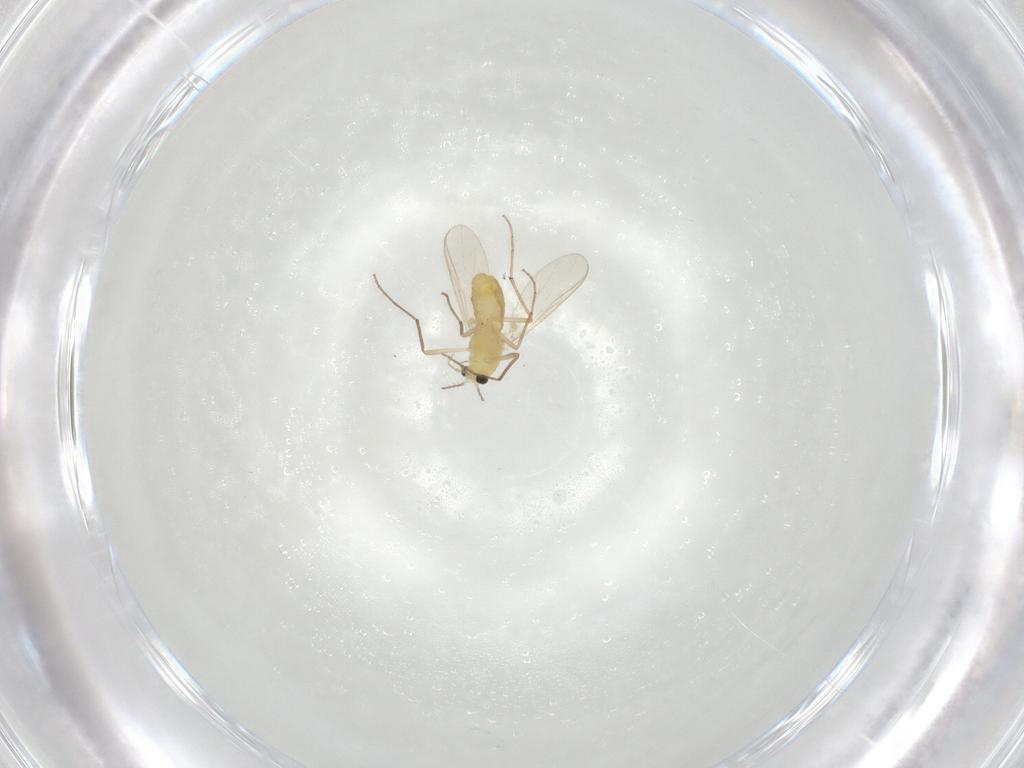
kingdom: Animalia
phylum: Arthropoda
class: Insecta
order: Diptera
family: Chironomidae
